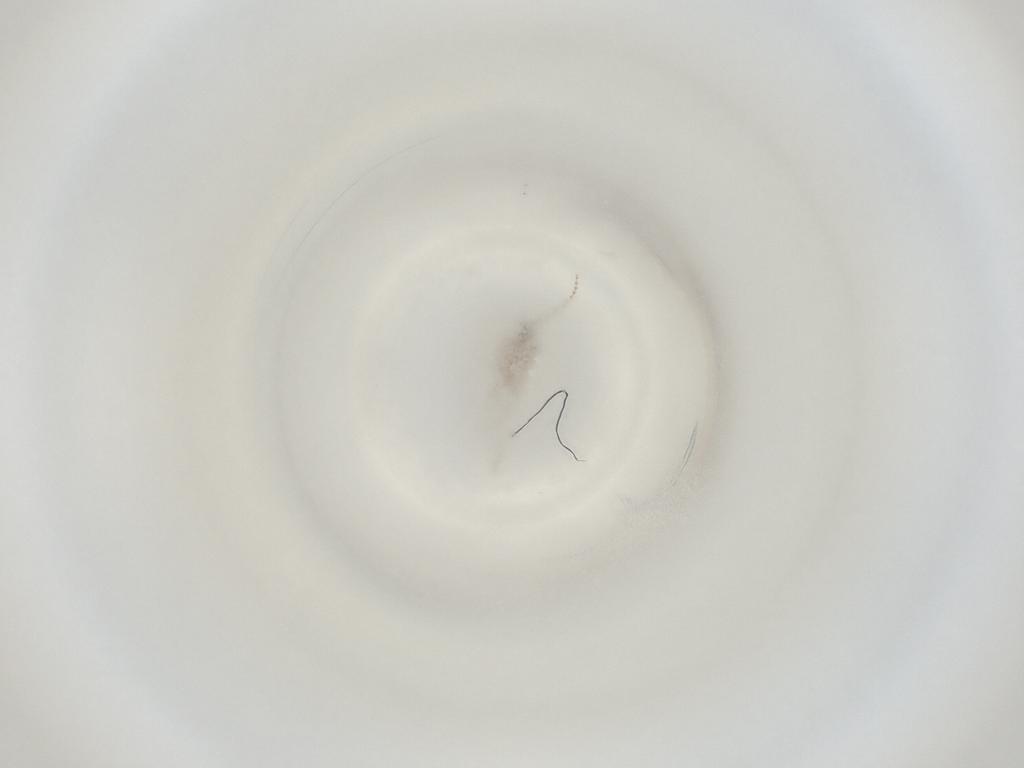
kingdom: Animalia
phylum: Arthropoda
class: Insecta
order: Diptera
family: Cecidomyiidae
